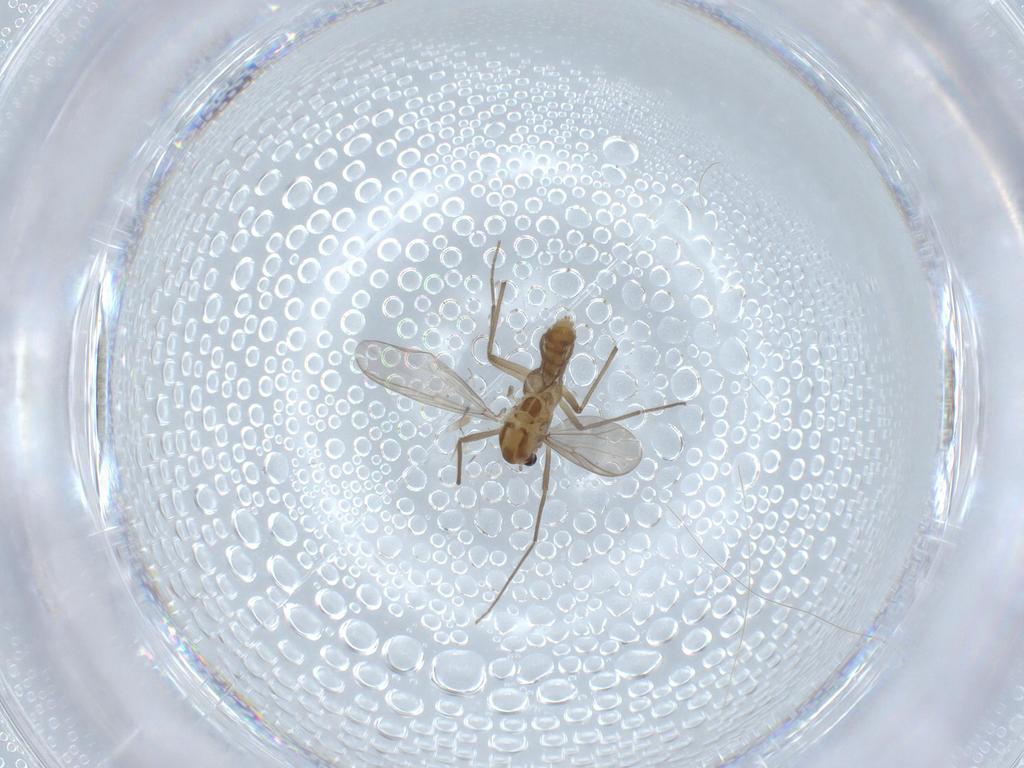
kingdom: Animalia
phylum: Arthropoda
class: Insecta
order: Diptera
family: Chironomidae
